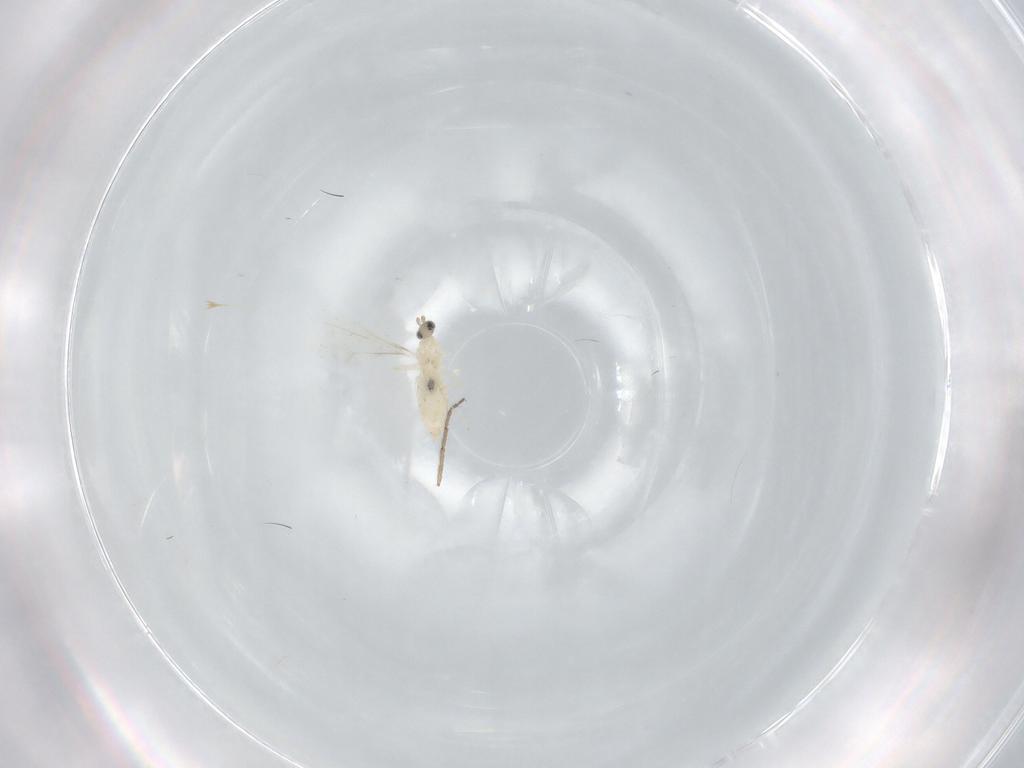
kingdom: Animalia
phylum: Arthropoda
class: Insecta
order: Diptera
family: Cecidomyiidae
